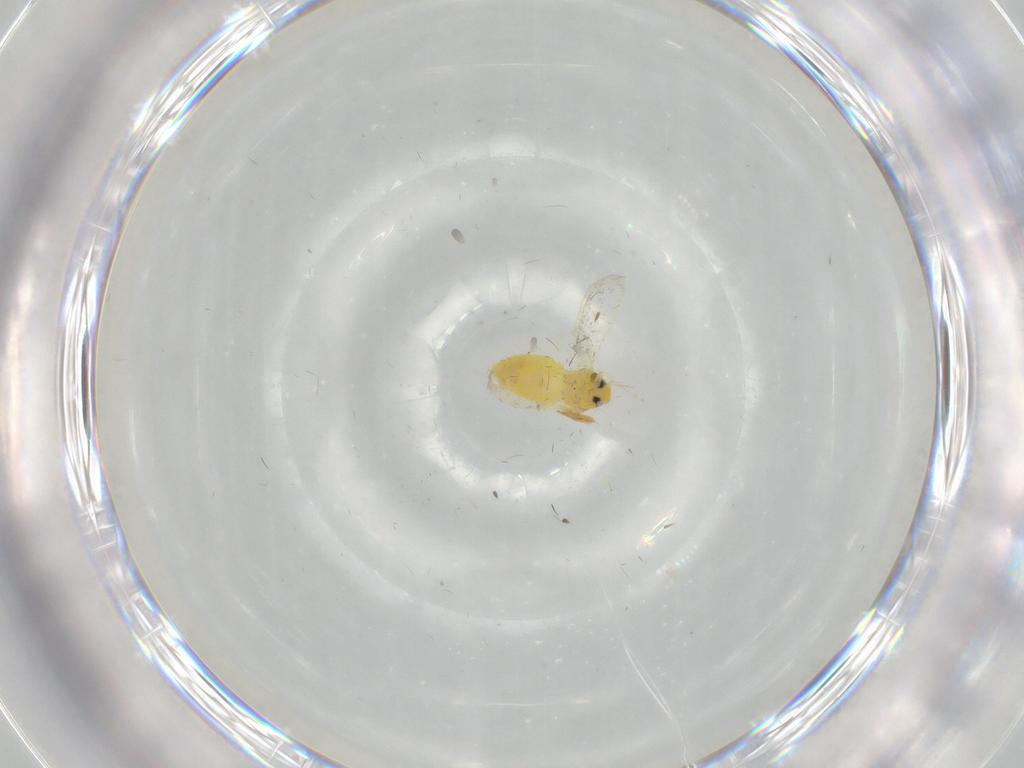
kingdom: Animalia
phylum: Arthropoda
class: Insecta
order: Hemiptera
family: Aleyrodidae
